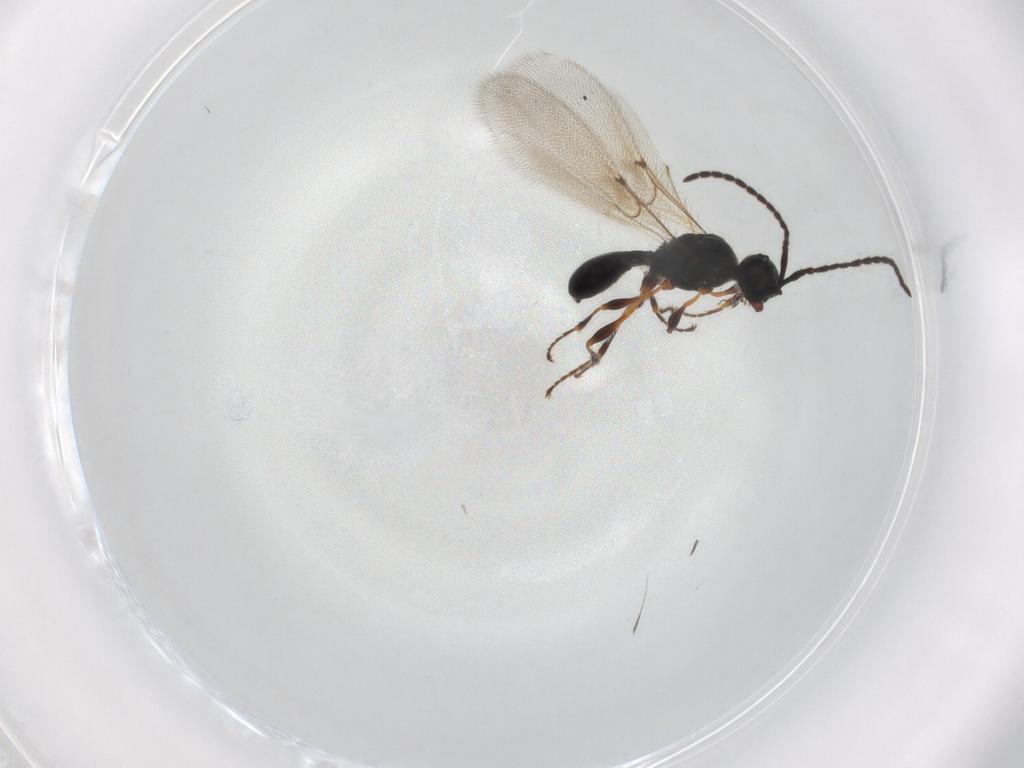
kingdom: Animalia
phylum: Arthropoda
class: Insecta
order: Hymenoptera
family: Diapriidae
